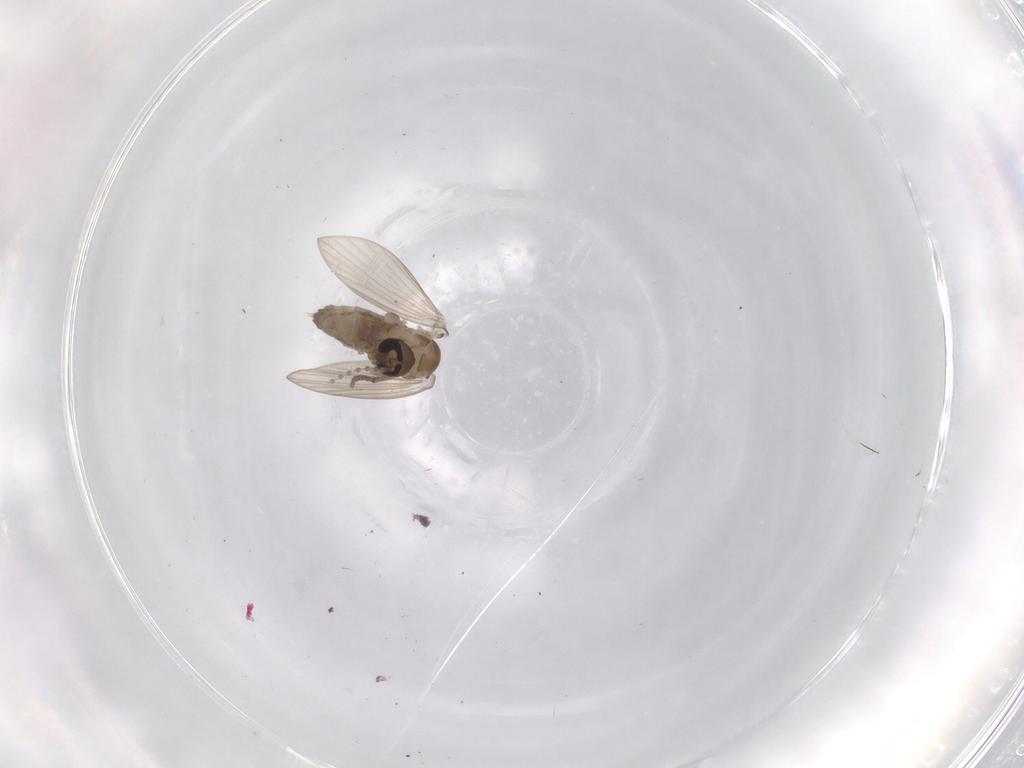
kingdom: Animalia
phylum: Arthropoda
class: Insecta
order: Diptera
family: Psychodidae
